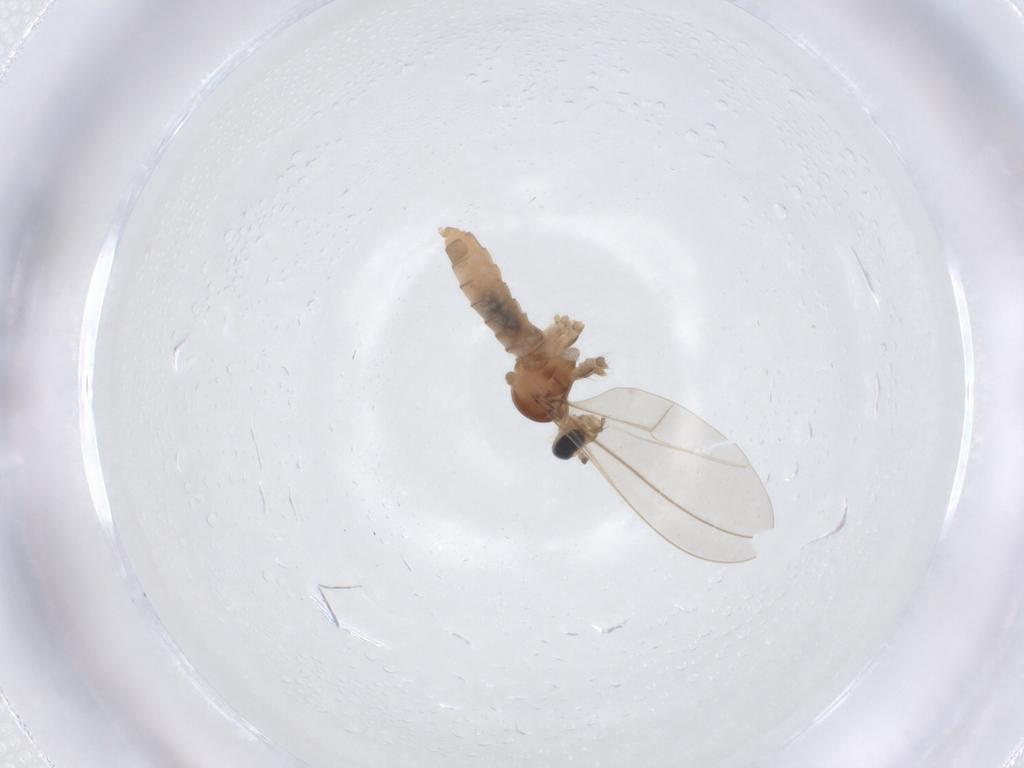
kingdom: Animalia
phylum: Arthropoda
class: Insecta
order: Diptera
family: Cecidomyiidae
